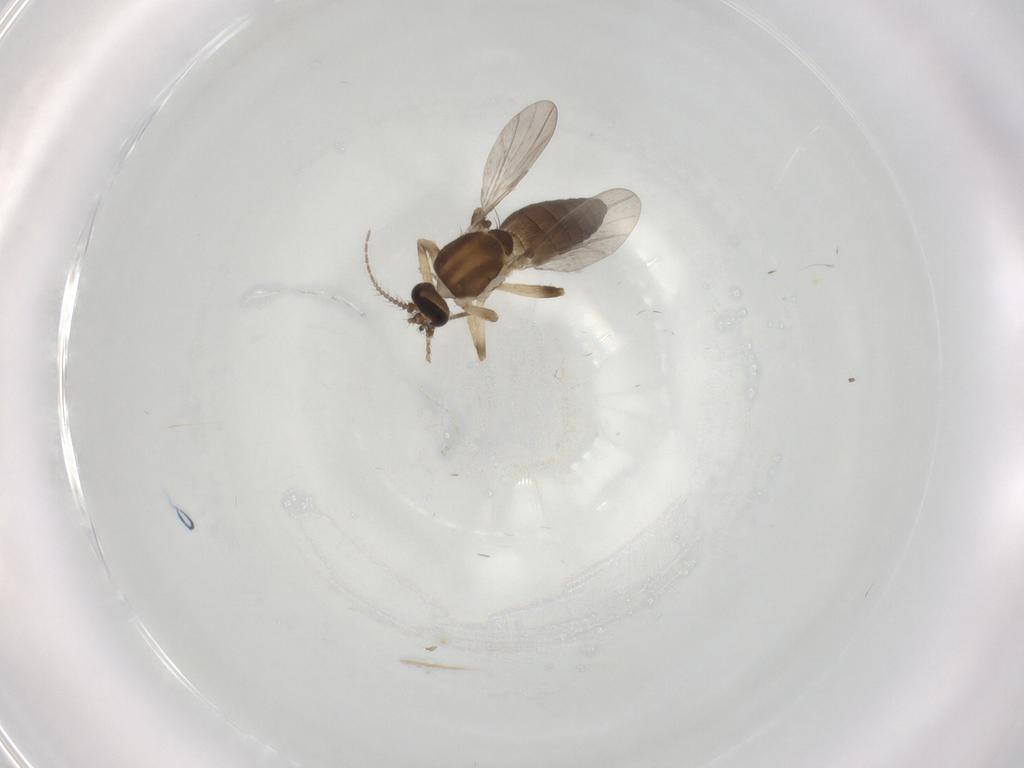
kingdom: Animalia
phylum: Arthropoda
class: Insecta
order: Diptera
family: Ceratopogonidae
